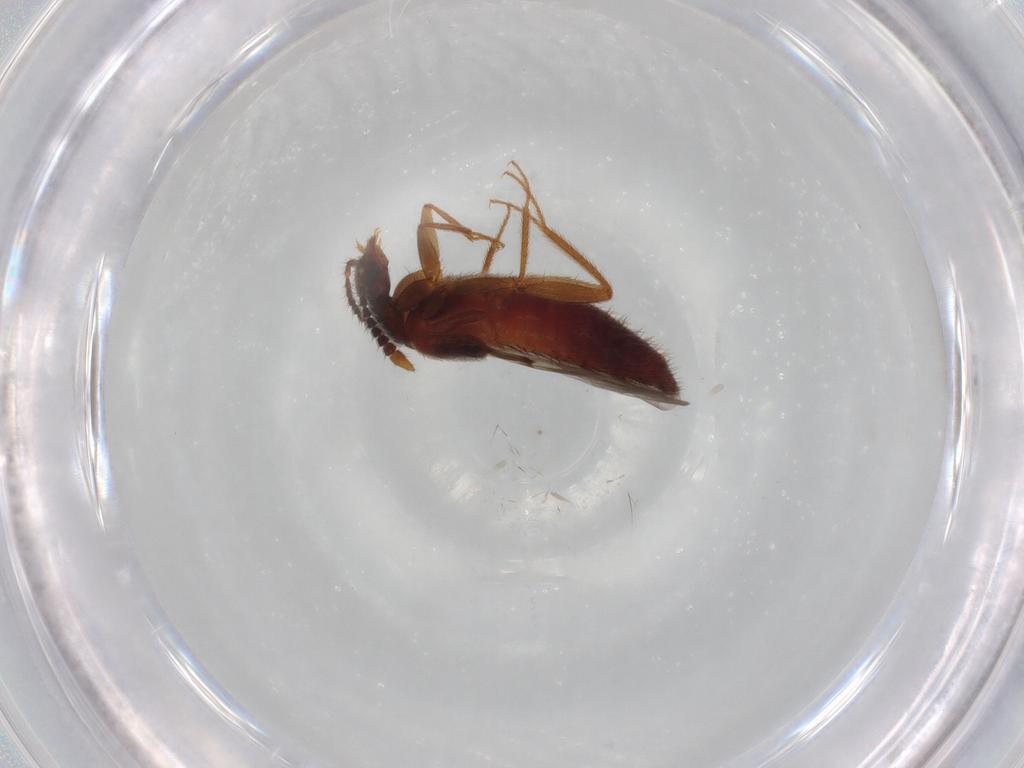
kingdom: Animalia
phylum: Arthropoda
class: Insecta
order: Coleoptera
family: Staphylinidae
